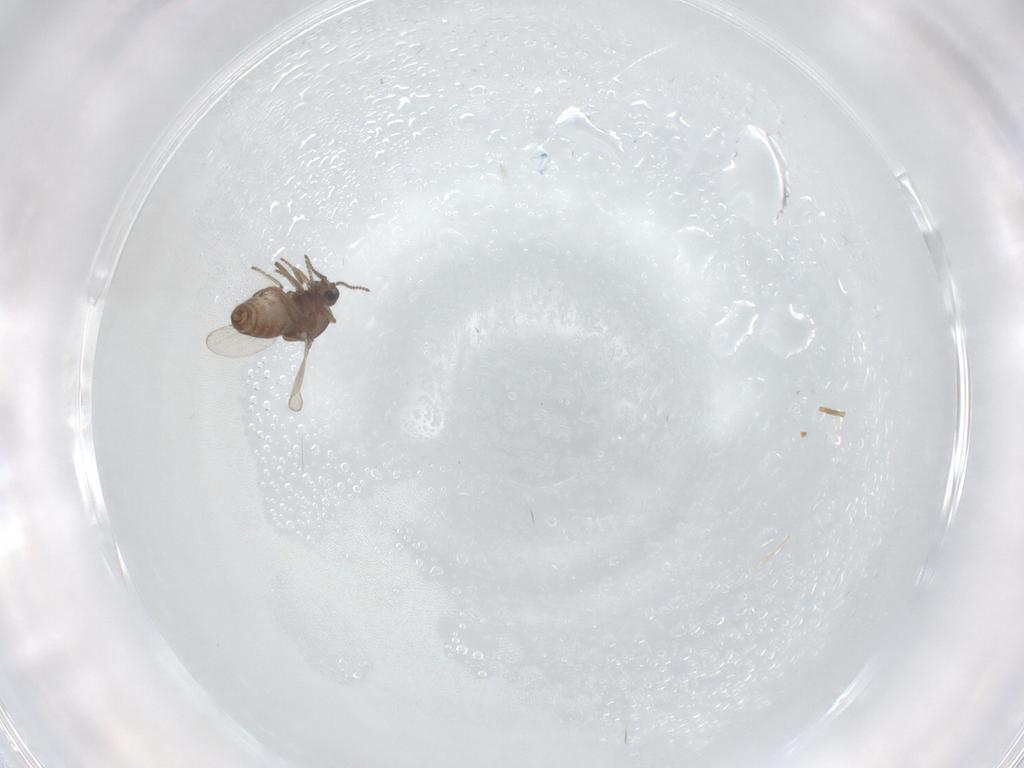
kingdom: Animalia
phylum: Arthropoda
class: Insecta
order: Diptera
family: Ceratopogonidae
